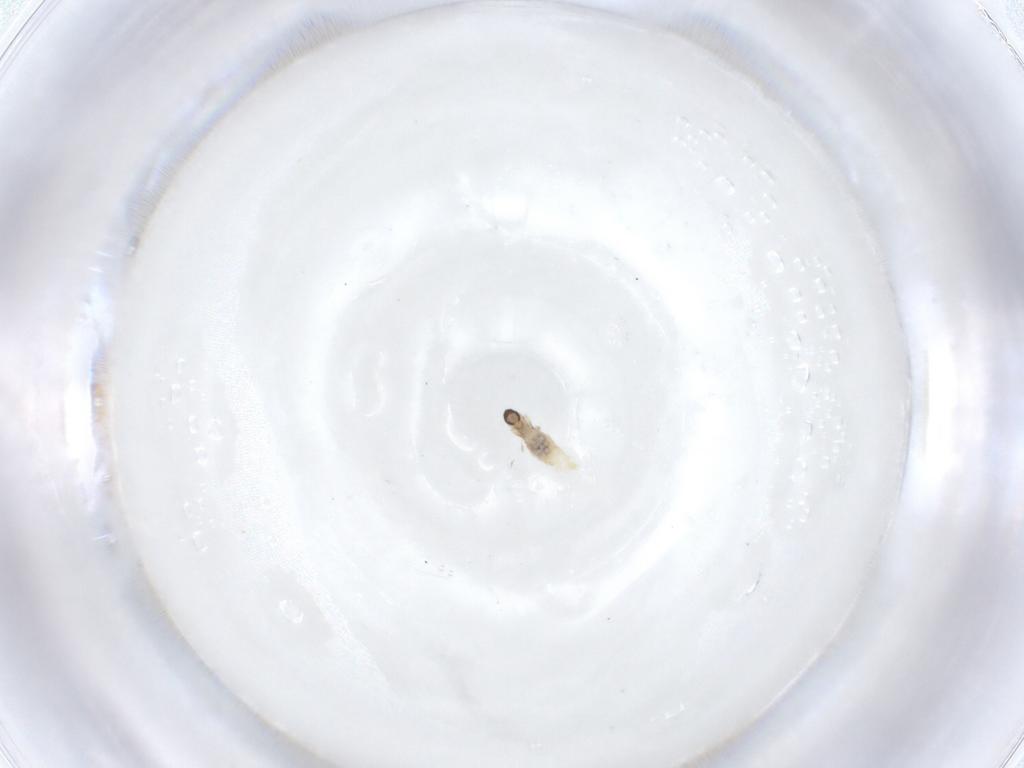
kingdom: Animalia
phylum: Arthropoda
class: Insecta
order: Diptera
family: Cecidomyiidae
